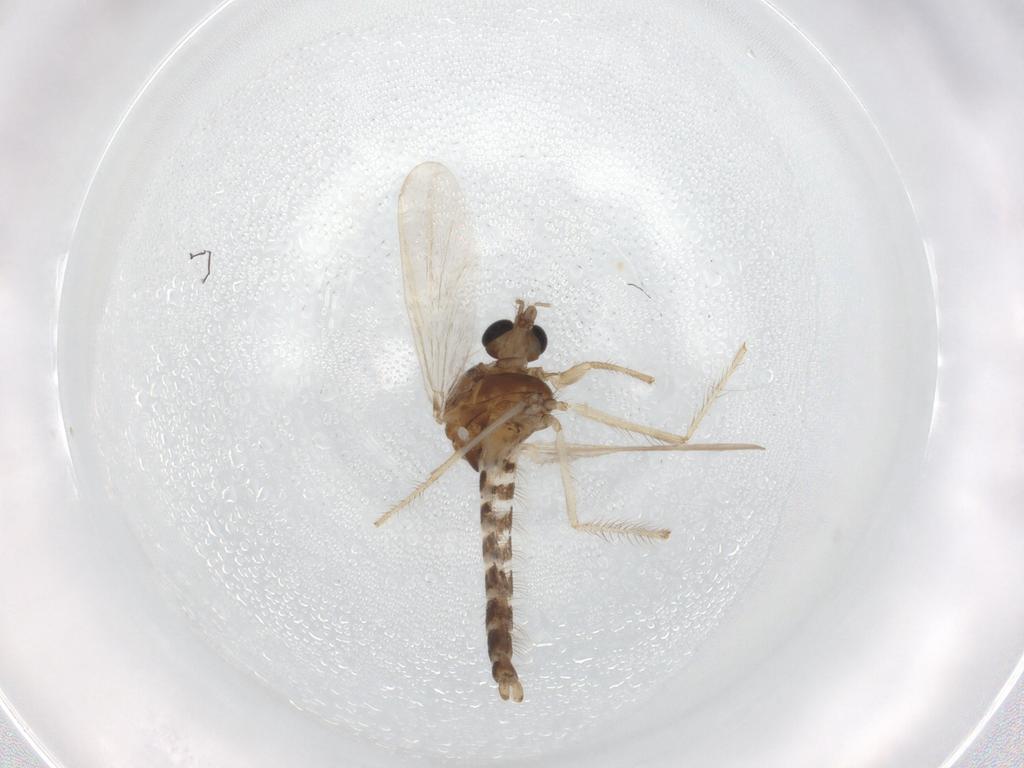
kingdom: Animalia
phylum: Arthropoda
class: Insecta
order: Diptera
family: Chironomidae
